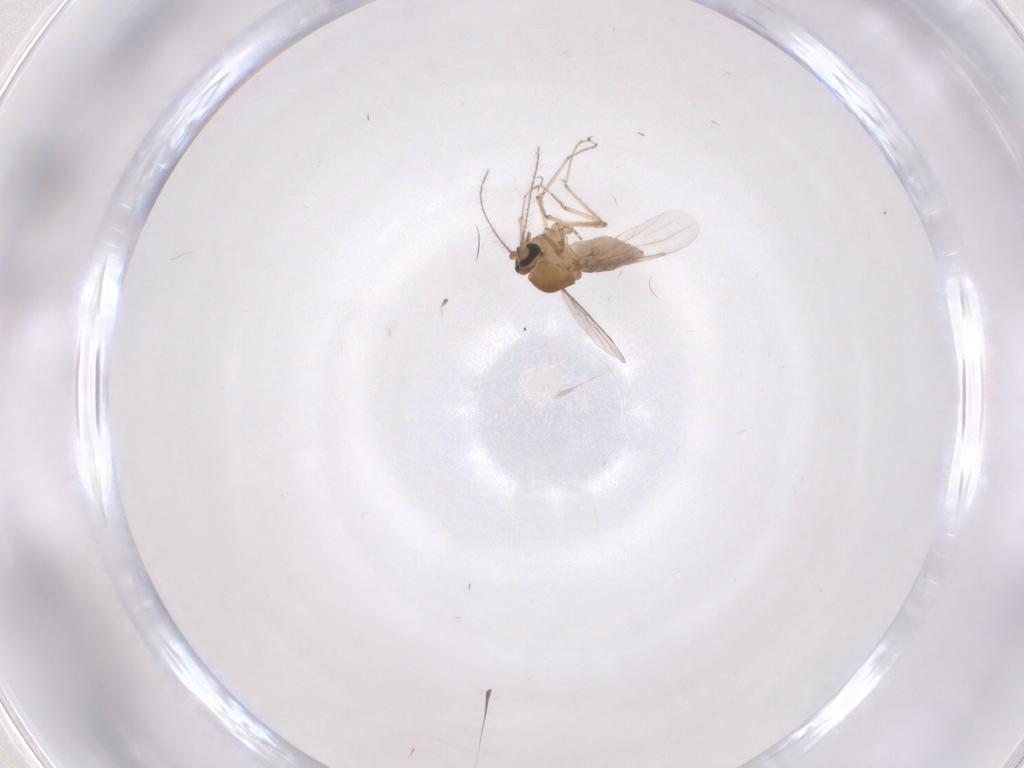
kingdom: Animalia
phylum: Arthropoda
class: Insecta
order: Diptera
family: Ceratopogonidae
